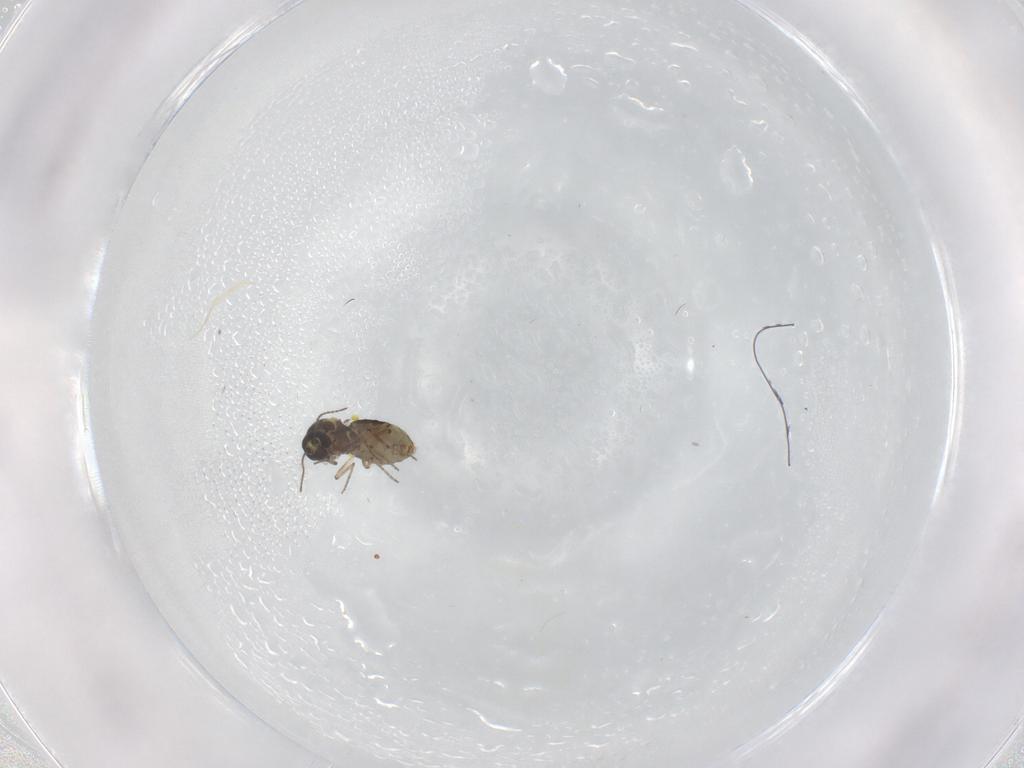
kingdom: Animalia
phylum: Arthropoda
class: Insecta
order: Diptera
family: Ceratopogonidae
